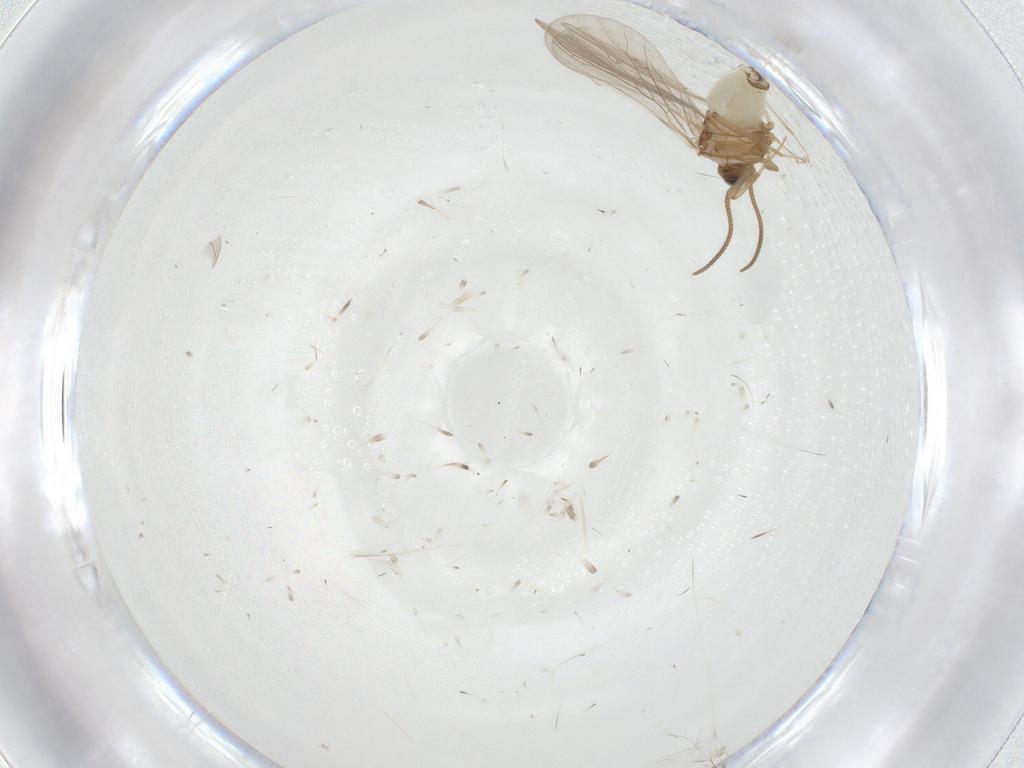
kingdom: Animalia
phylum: Arthropoda
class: Insecta
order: Neuroptera
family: Coniopterygidae
